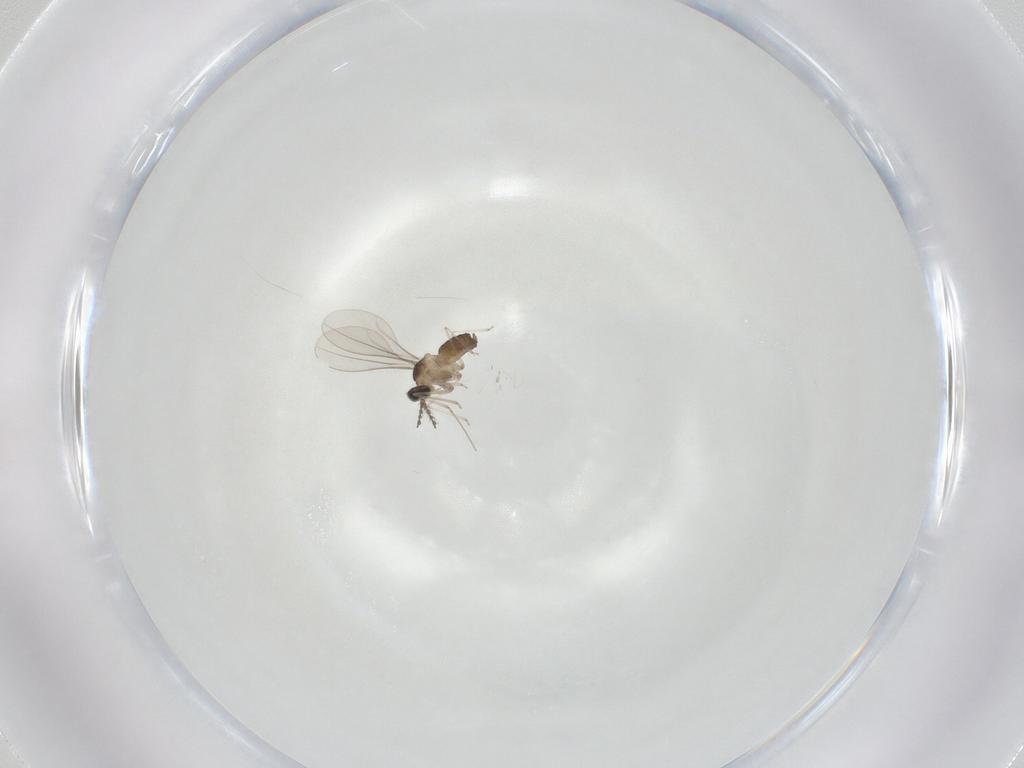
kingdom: Animalia
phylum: Arthropoda
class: Insecta
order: Diptera
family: Cecidomyiidae
